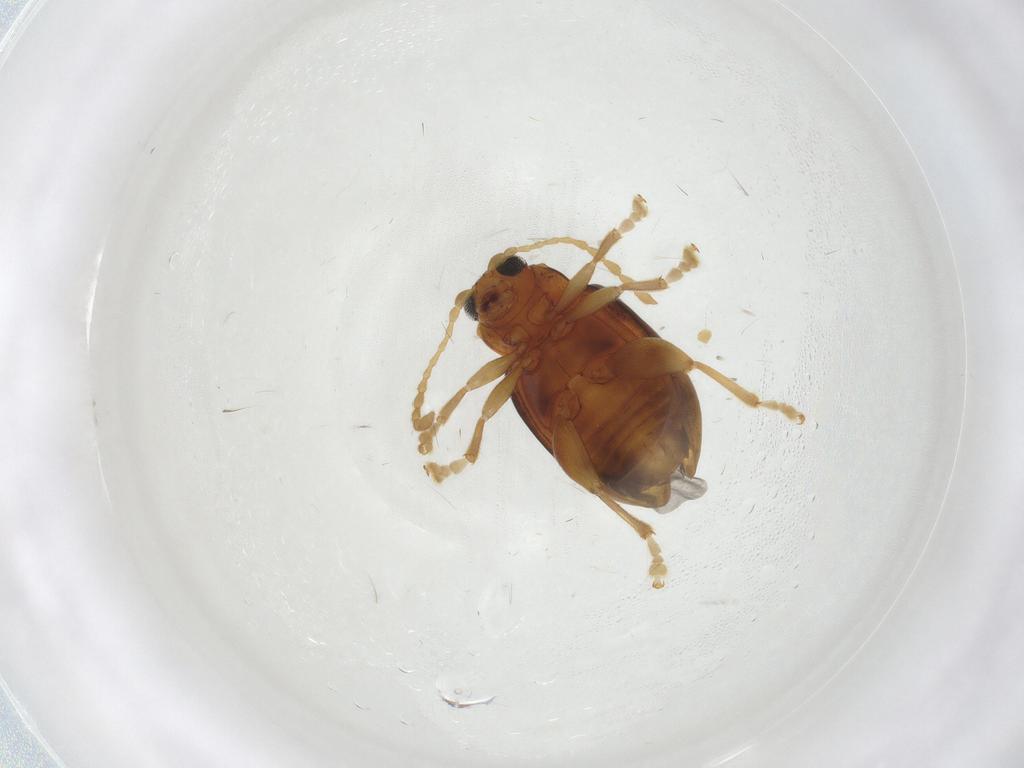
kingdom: Animalia
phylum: Arthropoda
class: Insecta
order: Coleoptera
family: Chrysomelidae
